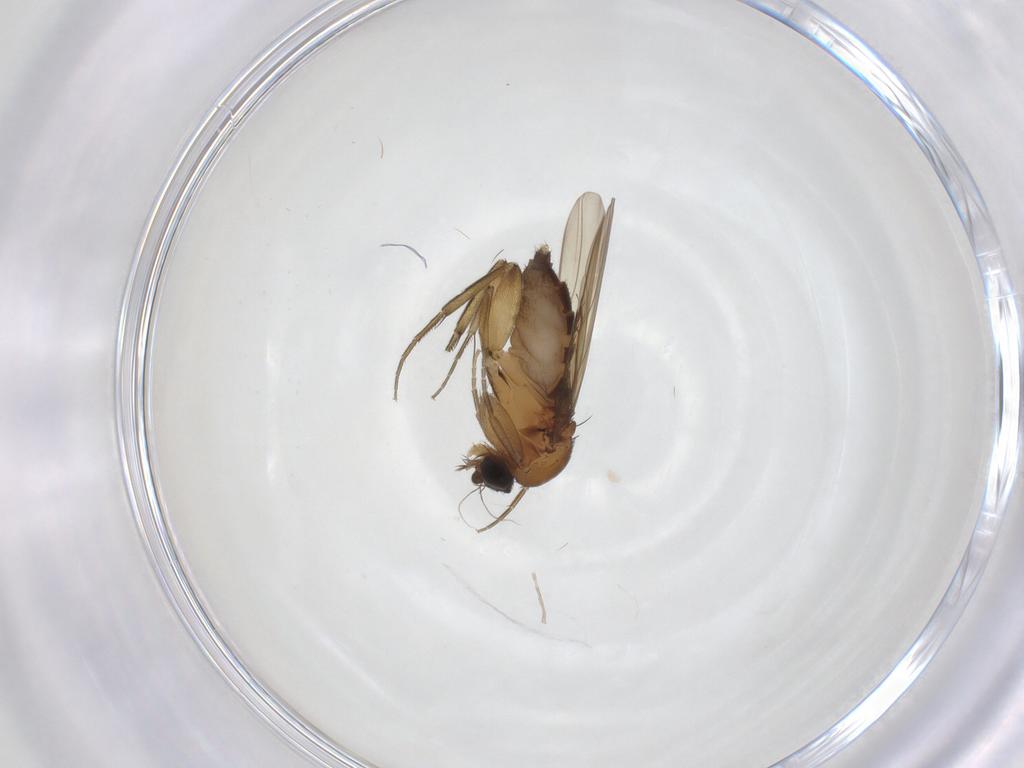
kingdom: Animalia
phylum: Arthropoda
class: Insecta
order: Diptera
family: Phoridae
